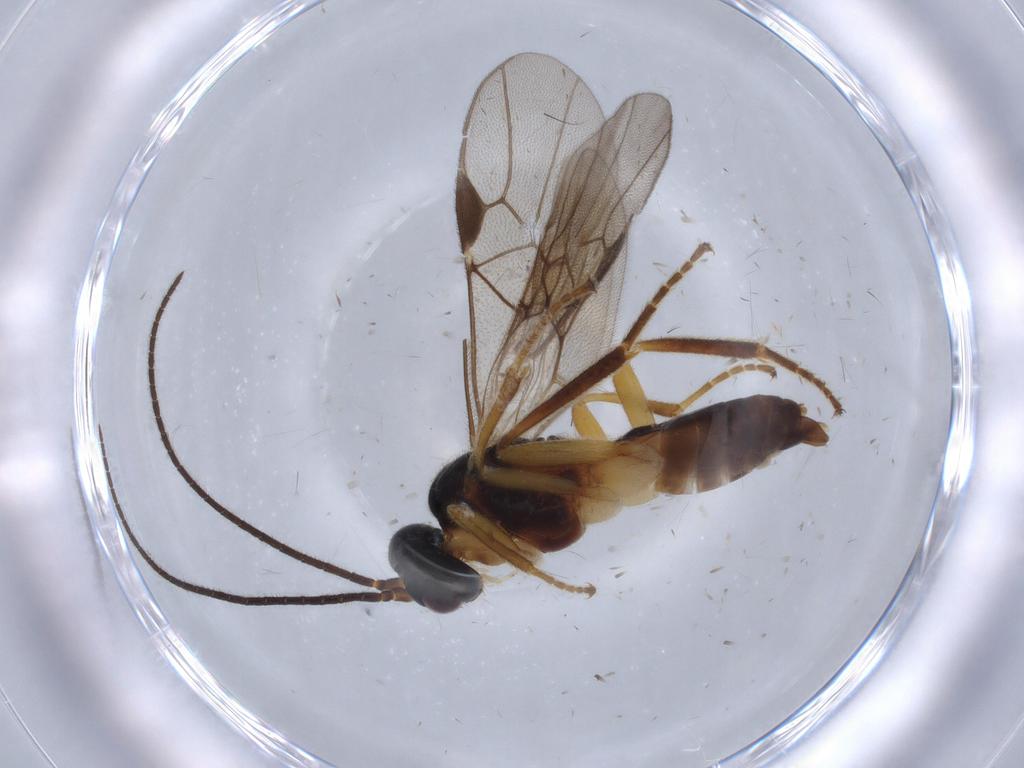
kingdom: Animalia
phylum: Arthropoda
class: Insecta
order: Hymenoptera
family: Braconidae
